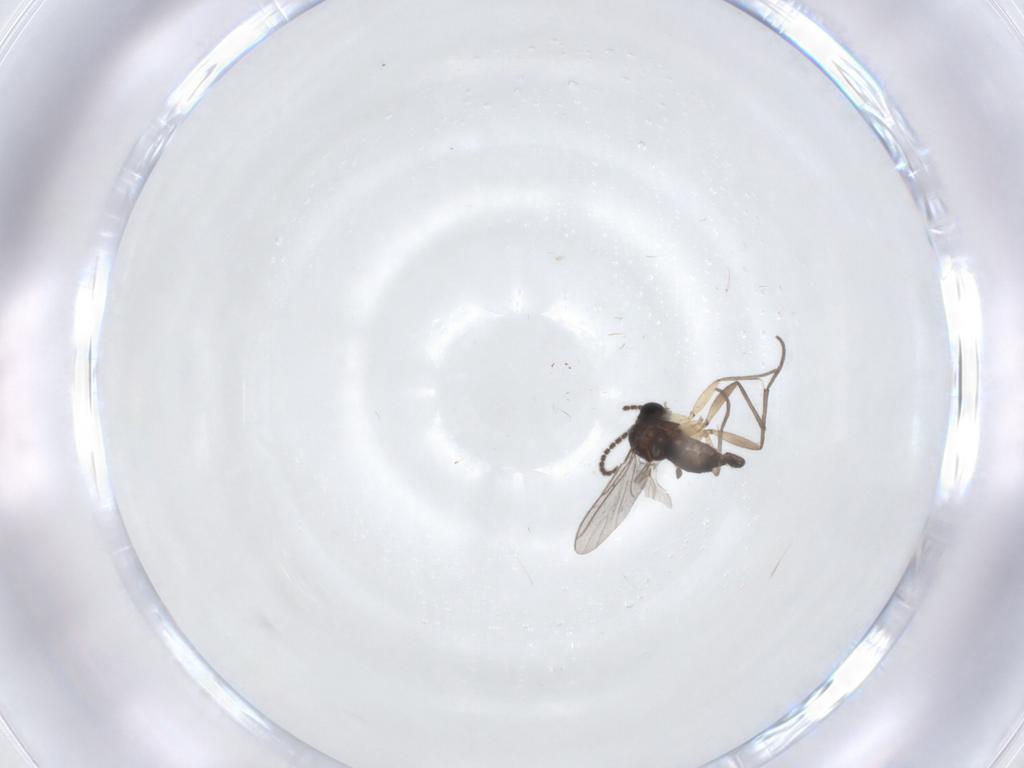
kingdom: Animalia
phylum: Arthropoda
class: Insecta
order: Diptera
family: Sciaridae
